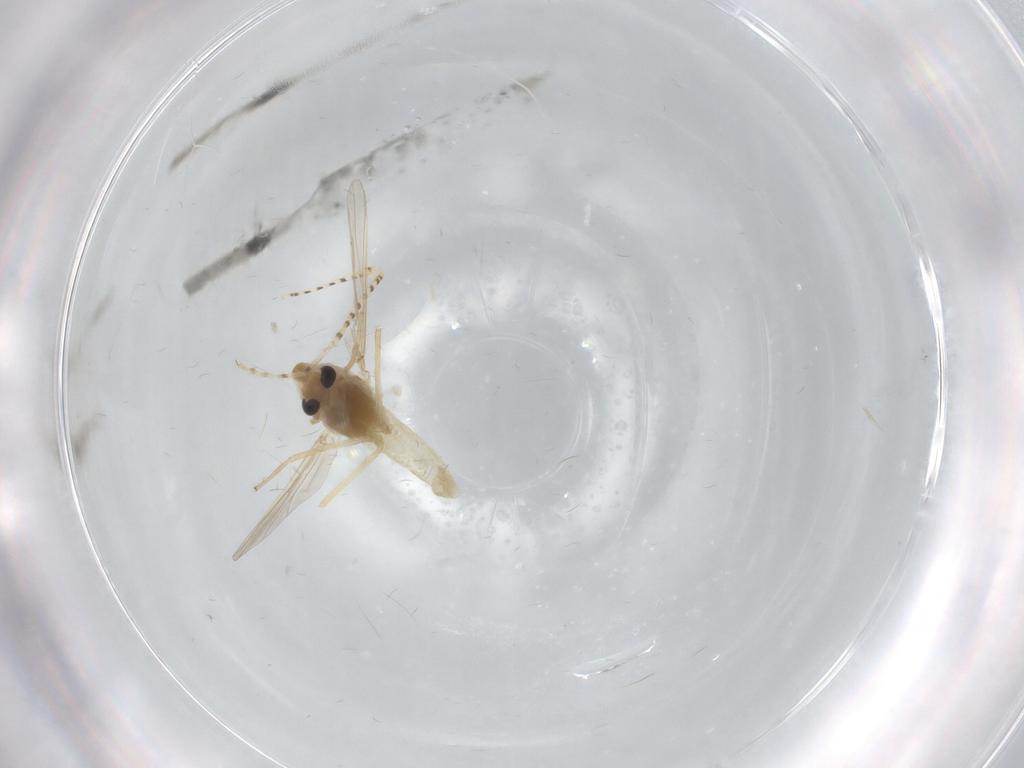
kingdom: Animalia
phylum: Arthropoda
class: Insecta
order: Diptera
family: Chironomidae
